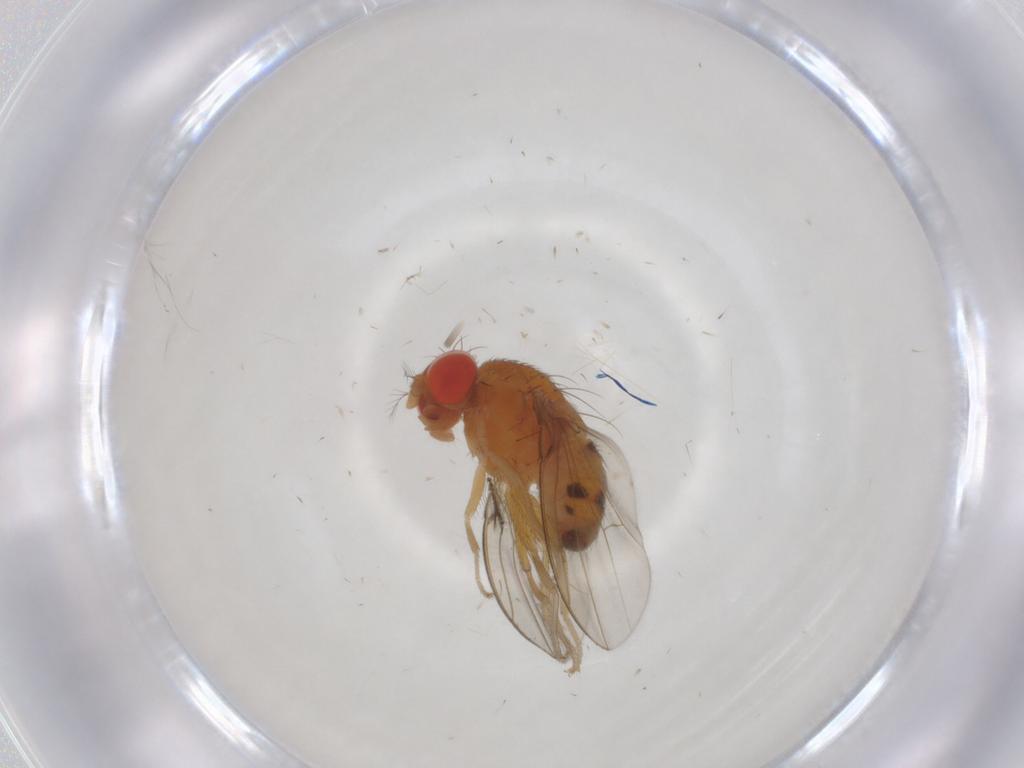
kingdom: Animalia
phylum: Arthropoda
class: Insecta
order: Diptera
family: Drosophilidae
